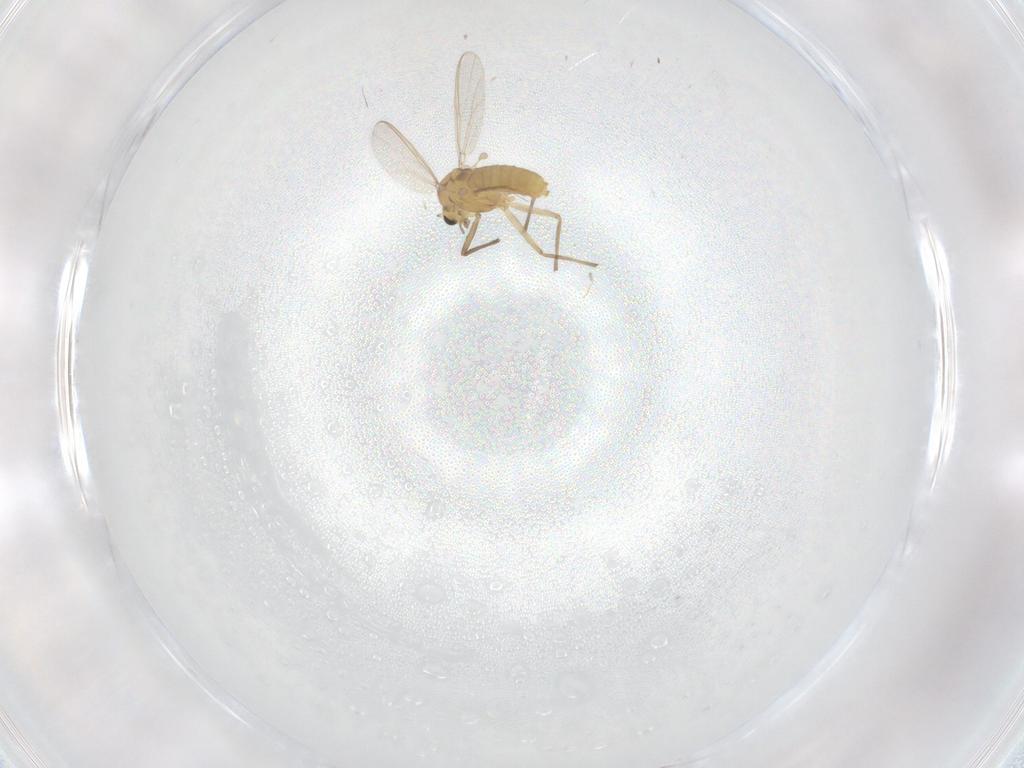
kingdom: Animalia
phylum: Arthropoda
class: Insecta
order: Diptera
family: Chironomidae
